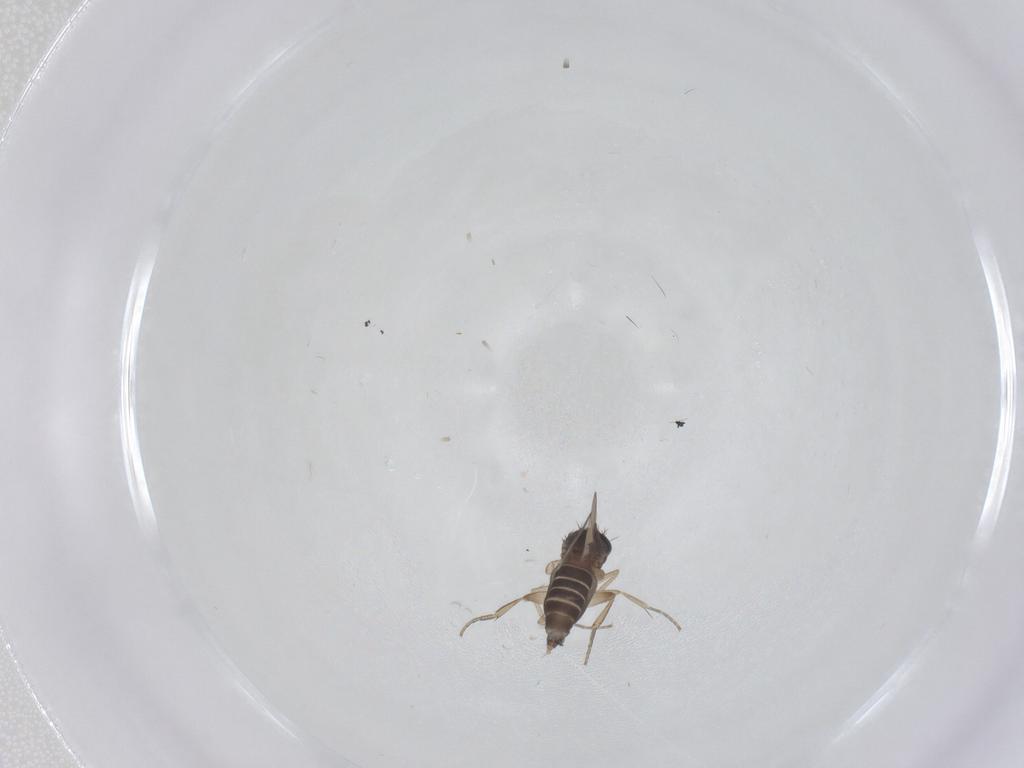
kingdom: Animalia
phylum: Arthropoda
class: Insecta
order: Diptera
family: Phoridae
